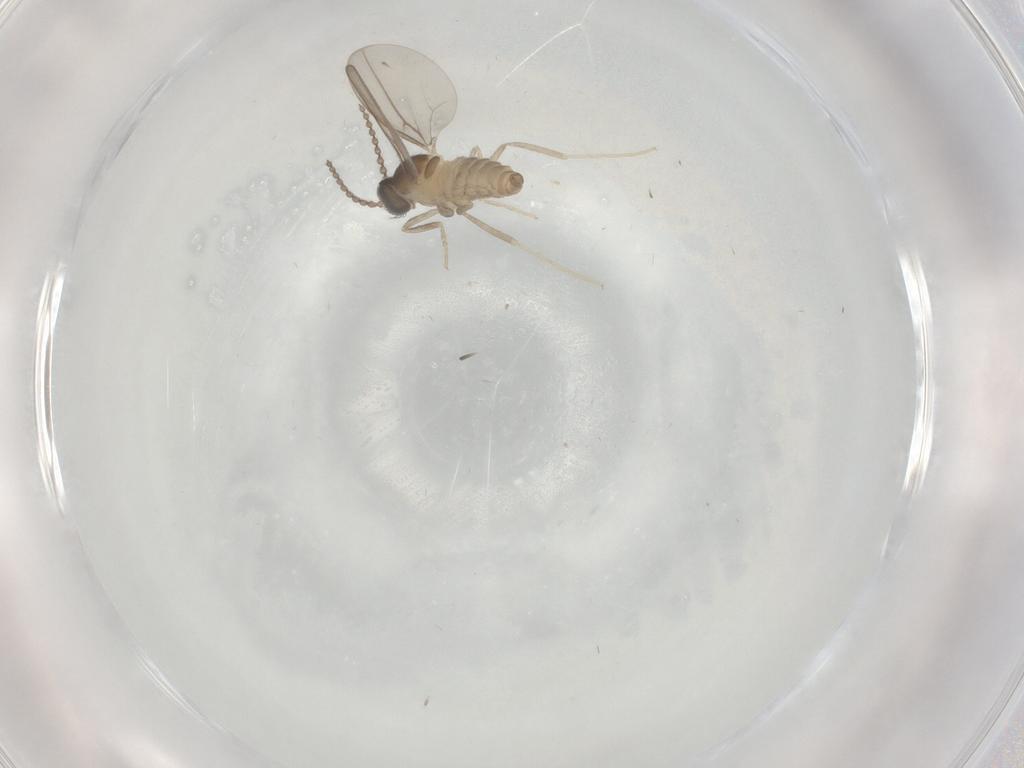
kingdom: Animalia
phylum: Arthropoda
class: Insecta
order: Diptera
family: Cecidomyiidae
